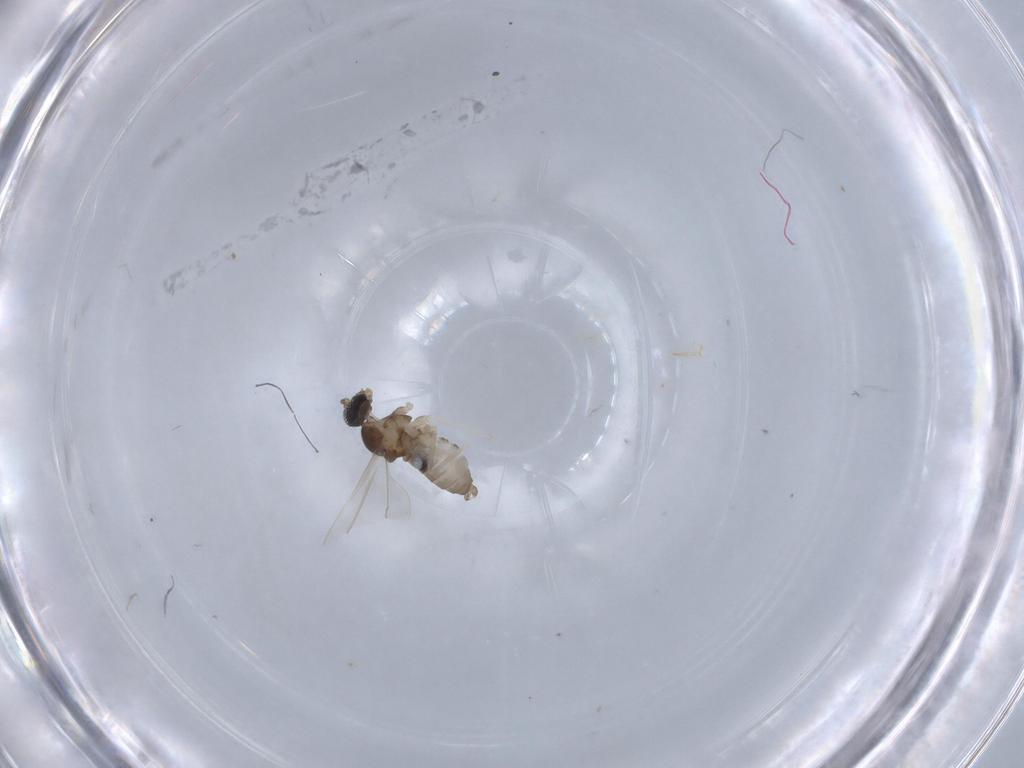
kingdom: Animalia
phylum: Arthropoda
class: Insecta
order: Diptera
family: Cecidomyiidae
